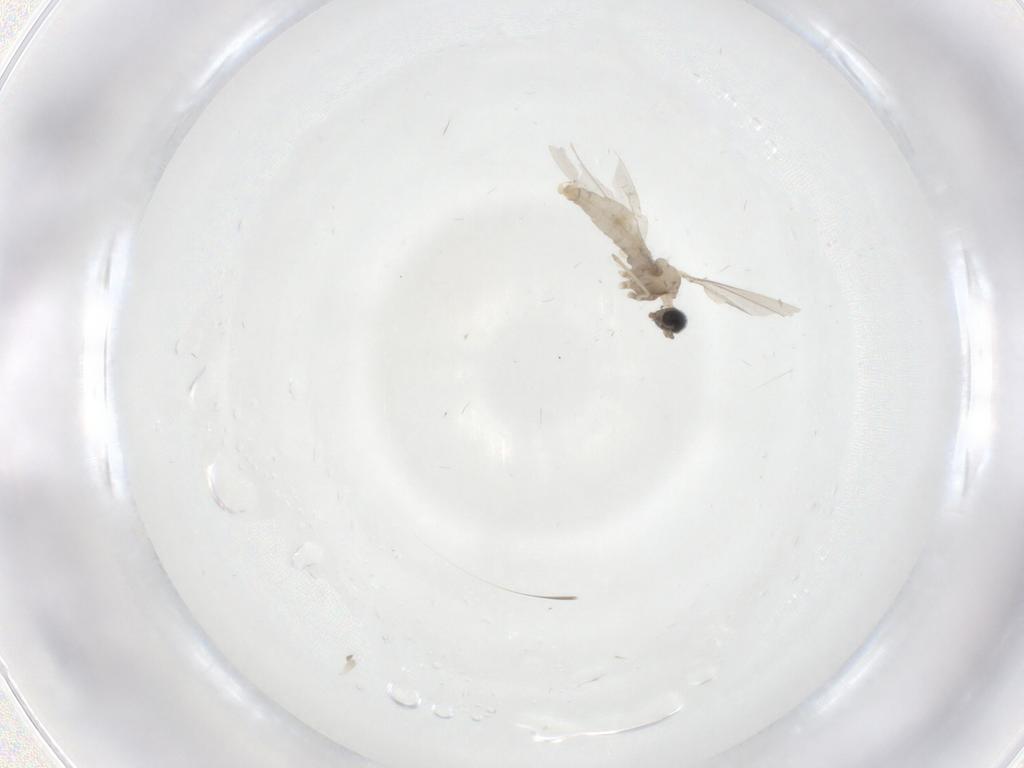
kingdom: Animalia
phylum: Arthropoda
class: Insecta
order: Diptera
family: Cecidomyiidae
